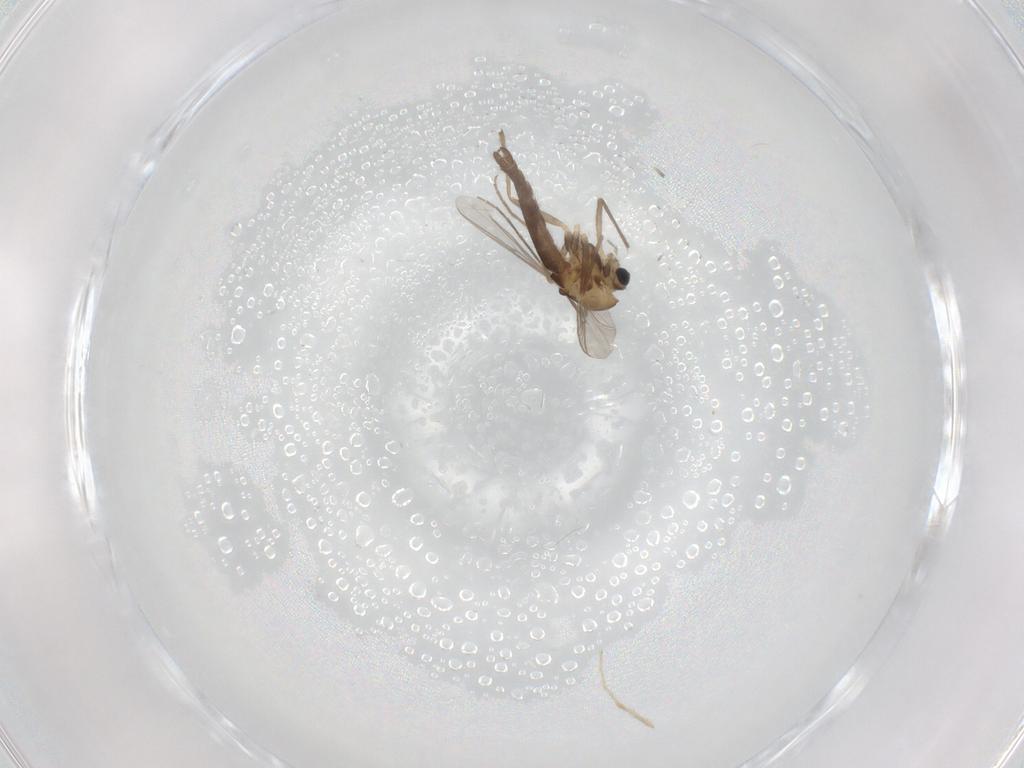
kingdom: Animalia
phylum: Arthropoda
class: Insecta
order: Diptera
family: Chironomidae
